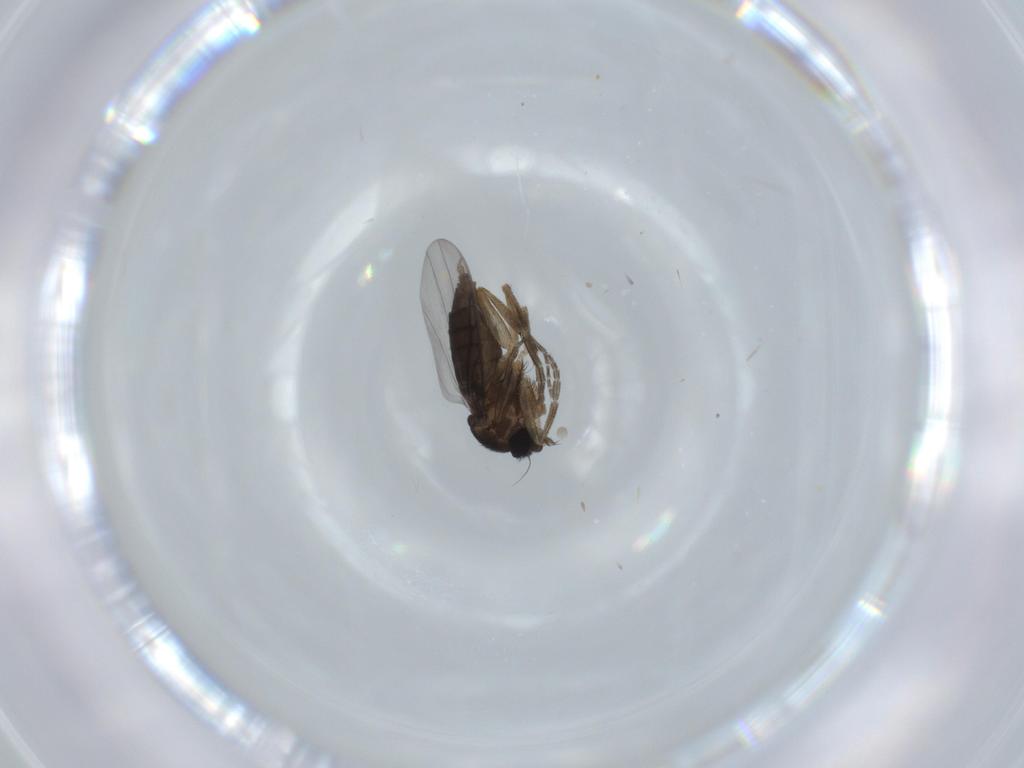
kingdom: Animalia
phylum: Arthropoda
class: Insecta
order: Diptera
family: Phoridae
